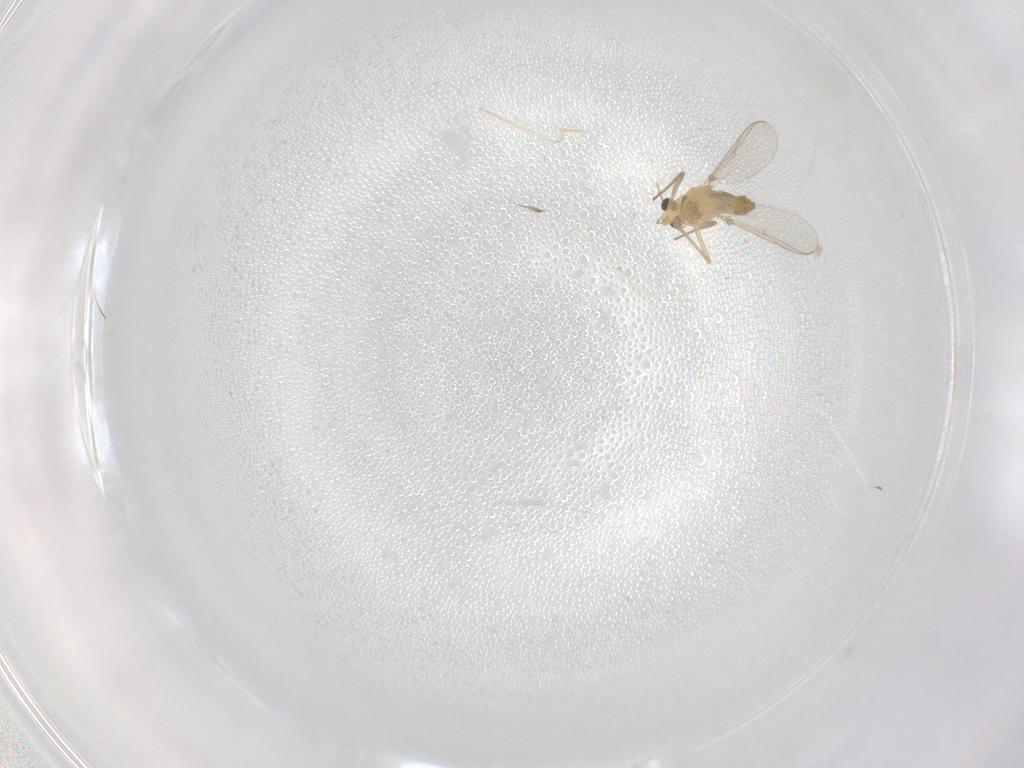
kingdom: Animalia
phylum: Arthropoda
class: Insecta
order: Diptera
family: Chironomidae
